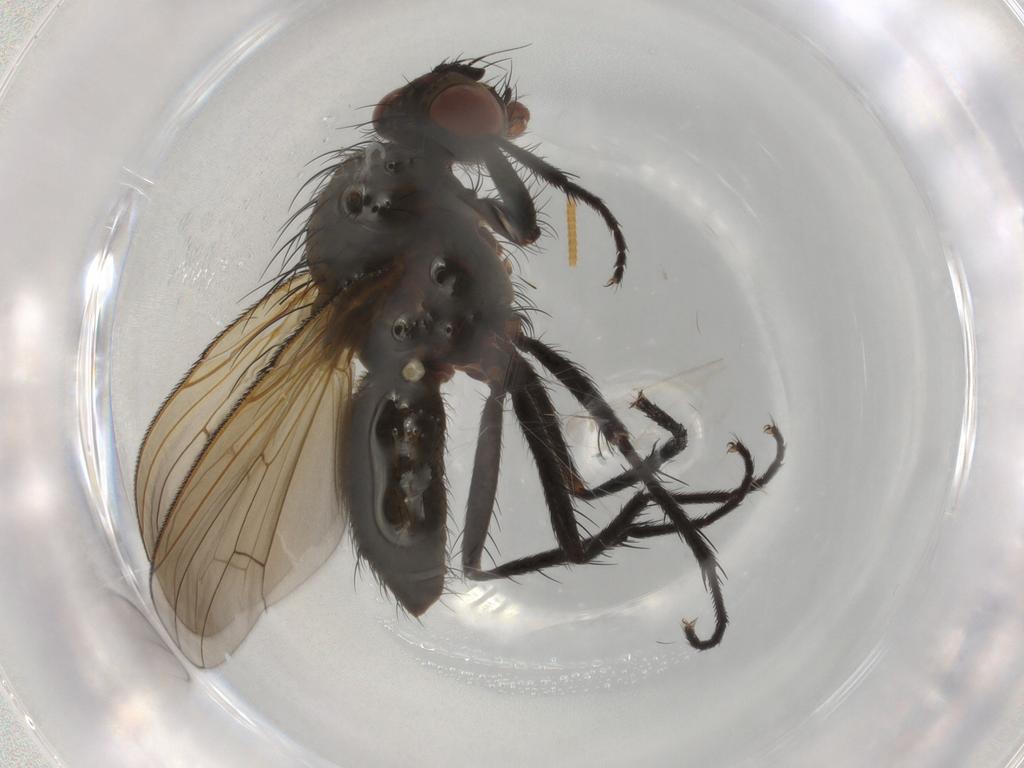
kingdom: Animalia
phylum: Arthropoda
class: Insecta
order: Diptera
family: Anthomyiidae
